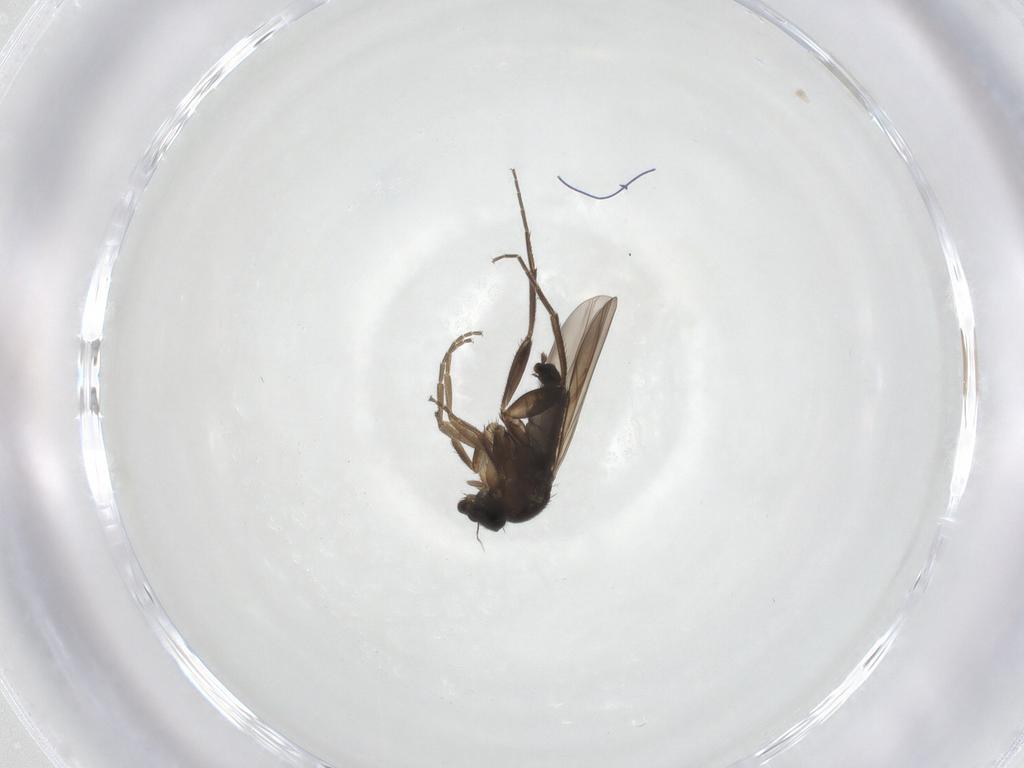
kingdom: Animalia
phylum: Arthropoda
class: Insecta
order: Diptera
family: Phoridae
